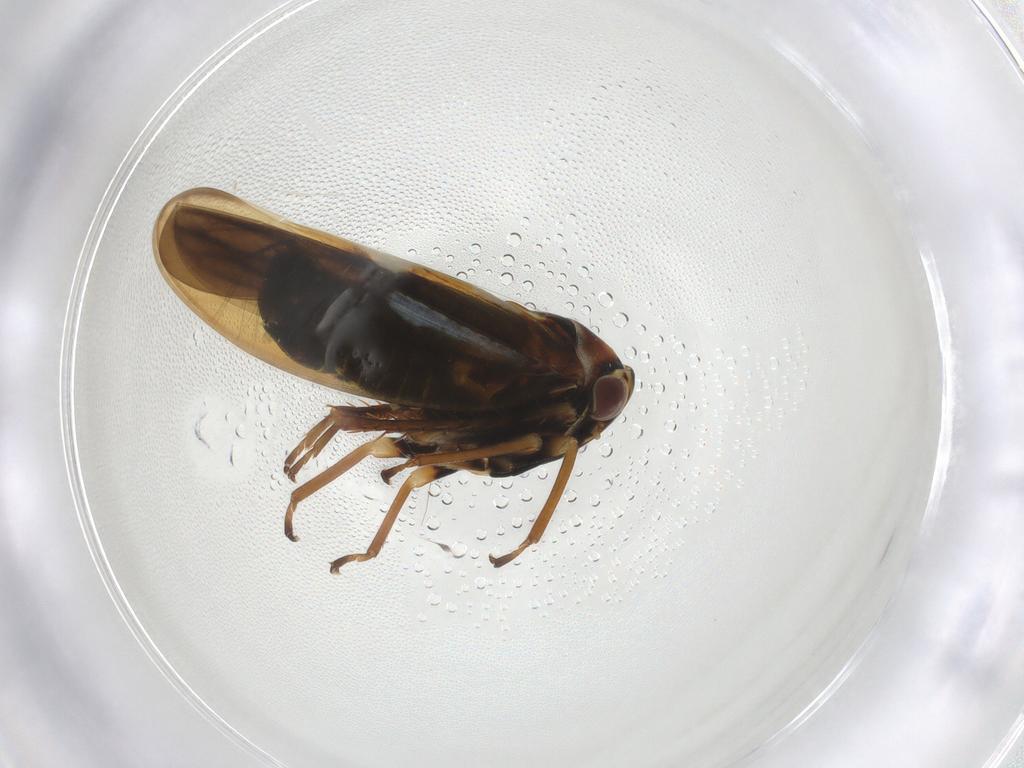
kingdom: Animalia
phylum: Arthropoda
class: Insecta
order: Hemiptera
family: Cicadellidae
